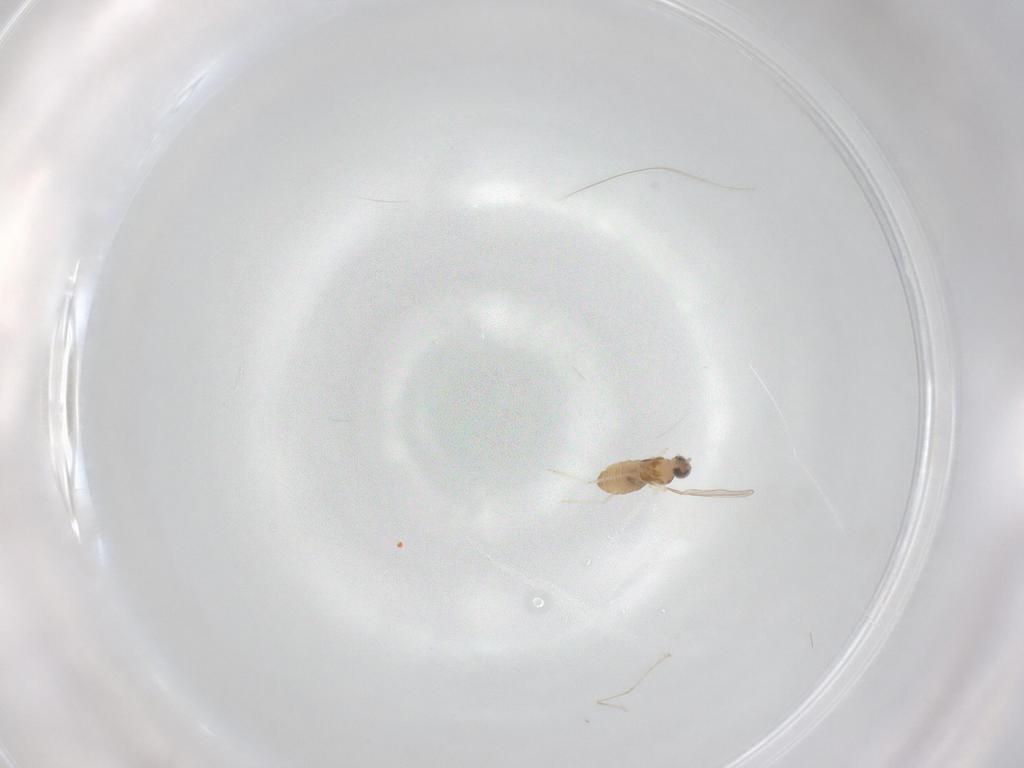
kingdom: Animalia
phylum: Arthropoda
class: Insecta
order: Diptera
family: Cecidomyiidae
